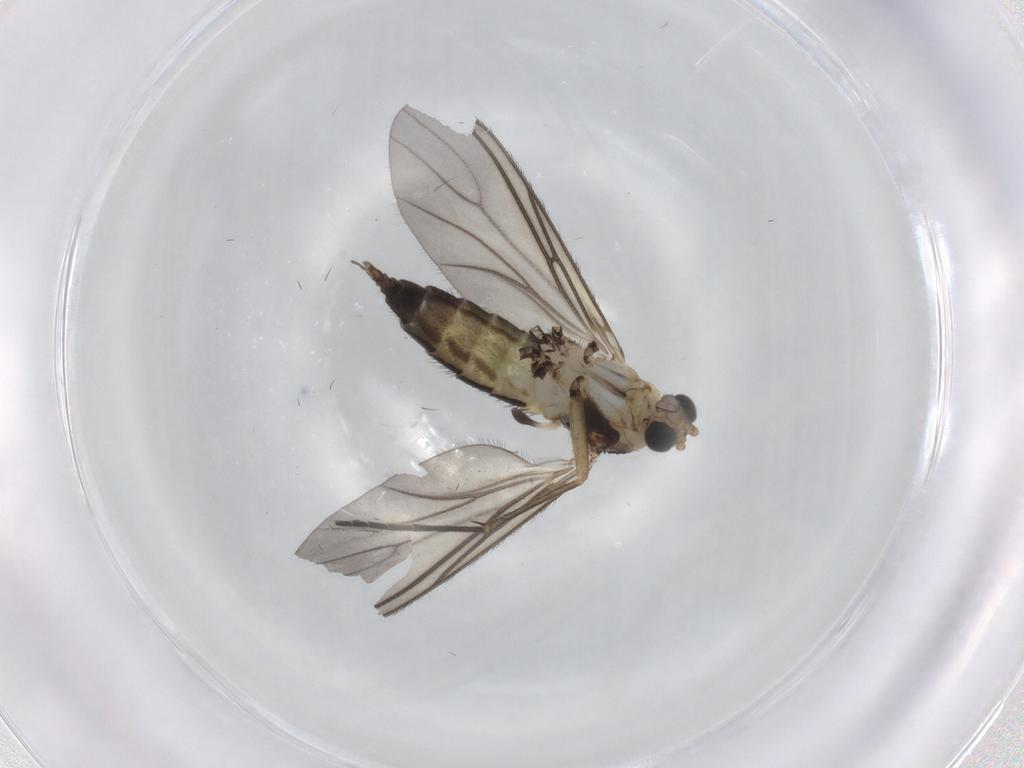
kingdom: Animalia
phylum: Arthropoda
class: Insecta
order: Diptera
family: Sciaridae
